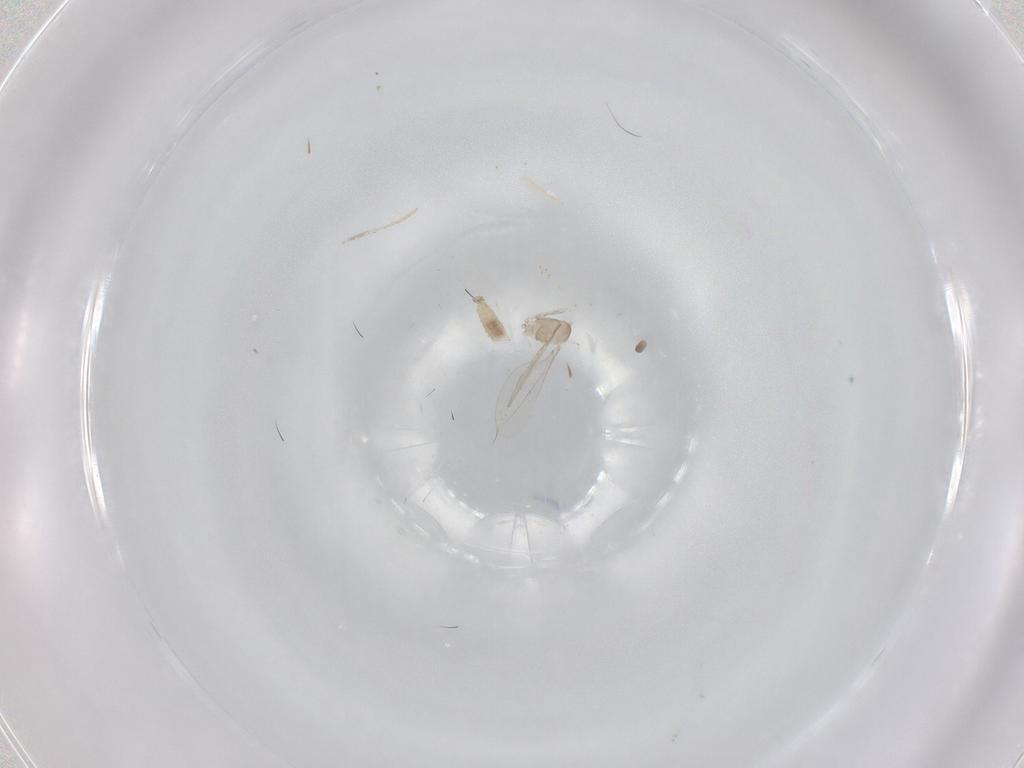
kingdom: Animalia
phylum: Arthropoda
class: Insecta
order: Diptera
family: Cecidomyiidae
